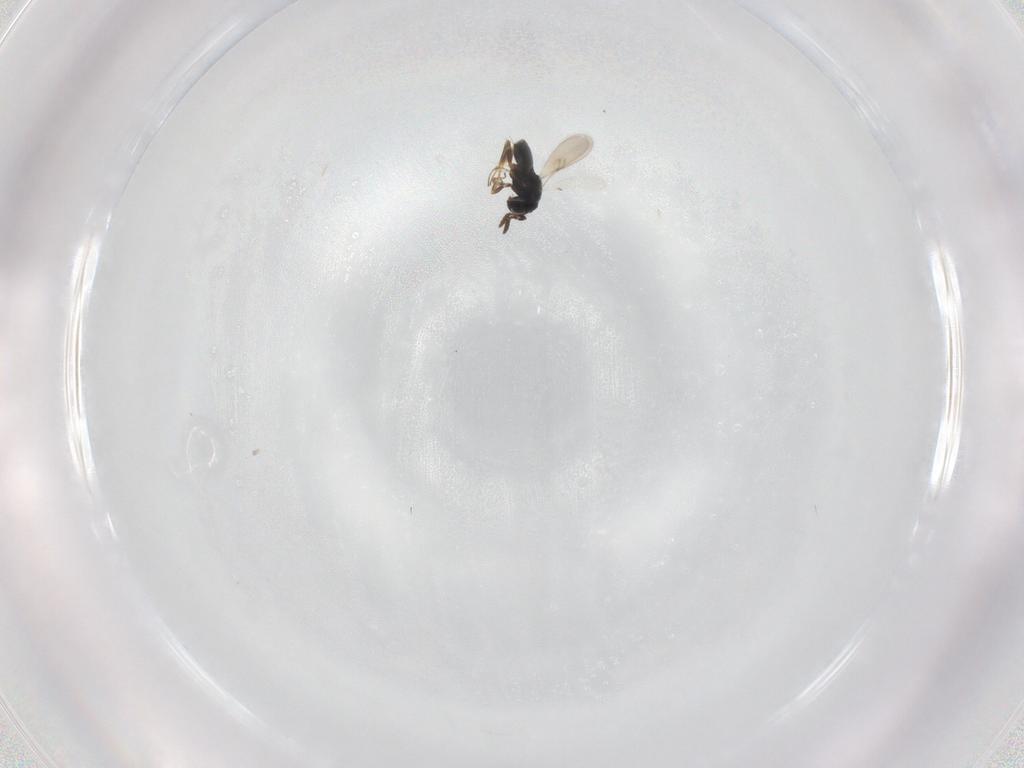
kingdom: Animalia
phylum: Arthropoda
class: Insecta
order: Hymenoptera
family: Scelionidae
